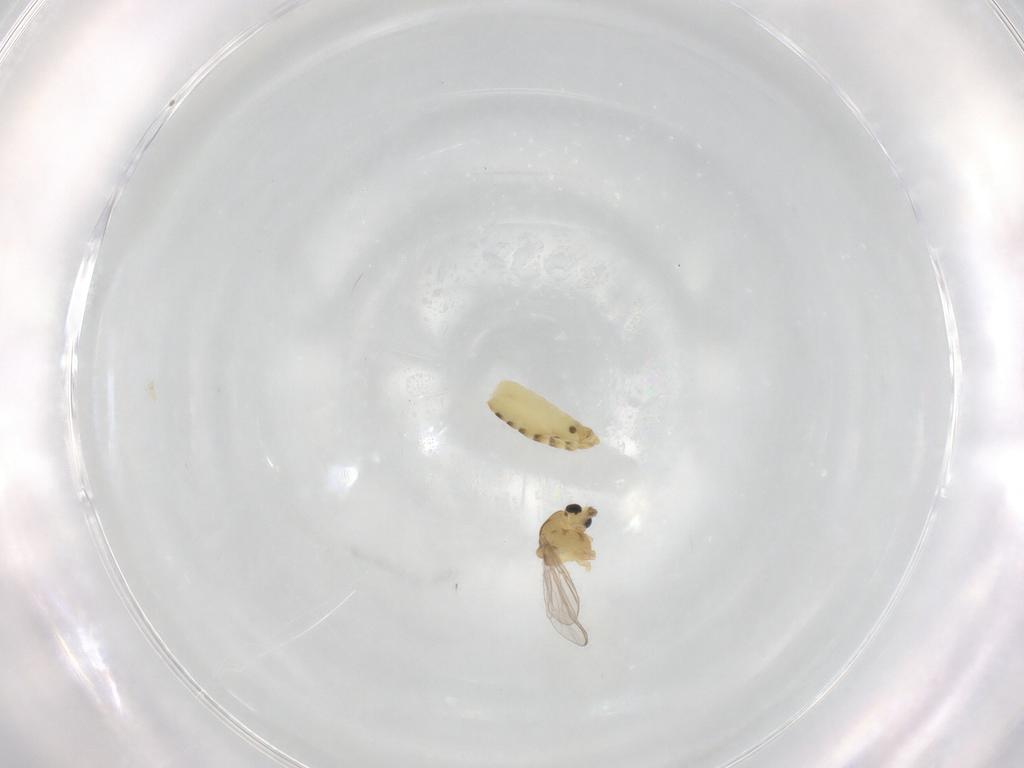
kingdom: Animalia
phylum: Arthropoda
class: Insecta
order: Diptera
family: Chironomidae
